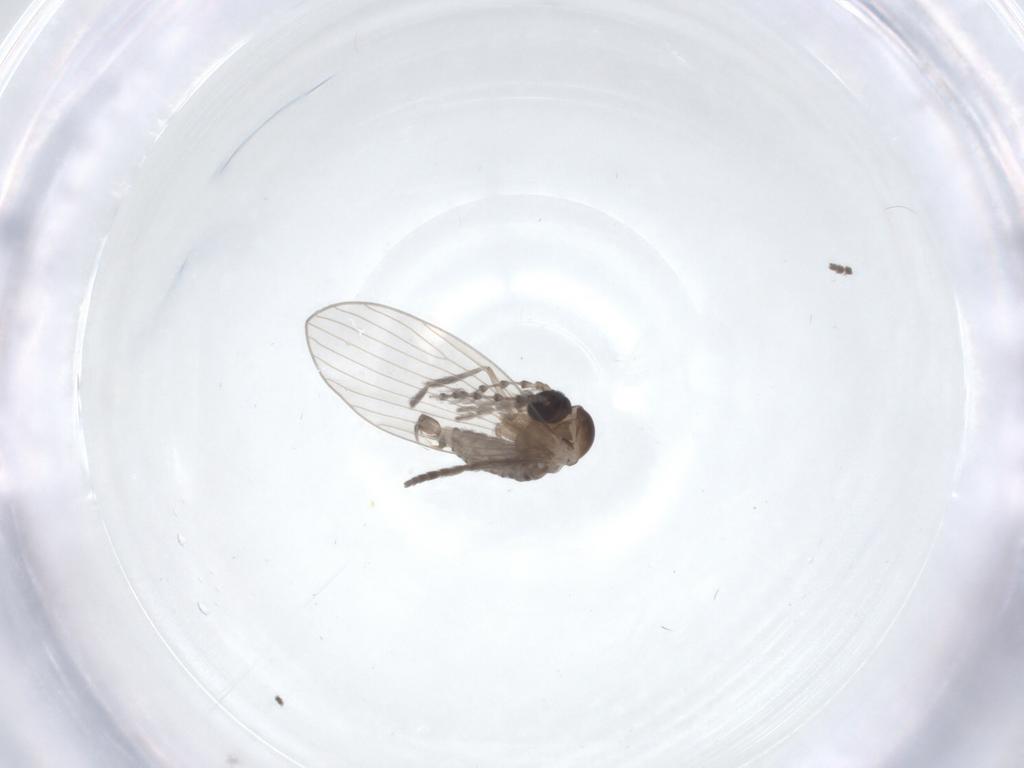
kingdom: Animalia
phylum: Arthropoda
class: Insecta
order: Diptera
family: Psychodidae
